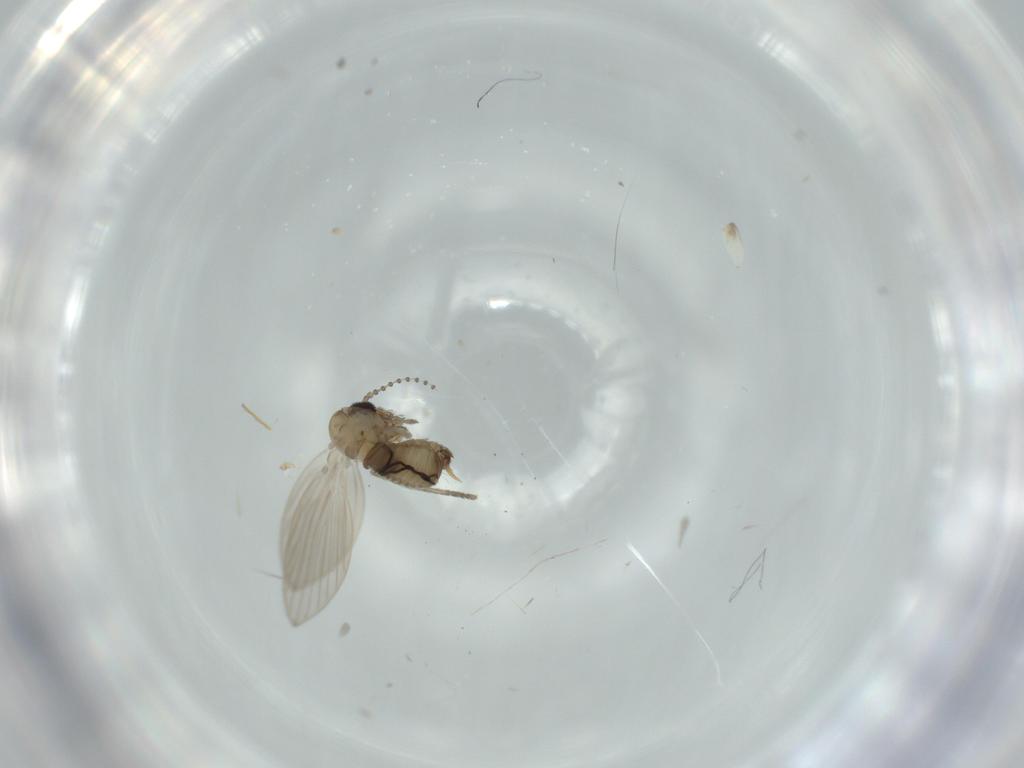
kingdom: Animalia
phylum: Arthropoda
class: Insecta
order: Diptera
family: Psychodidae
